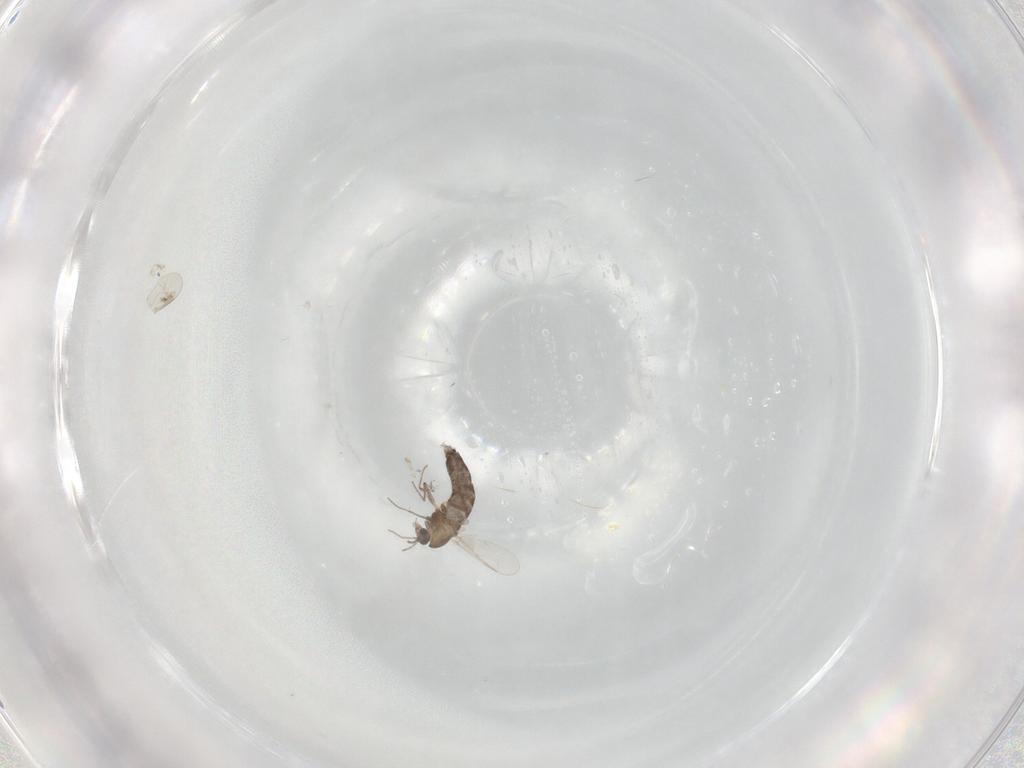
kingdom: Animalia
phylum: Arthropoda
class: Insecta
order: Diptera
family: Chironomidae
